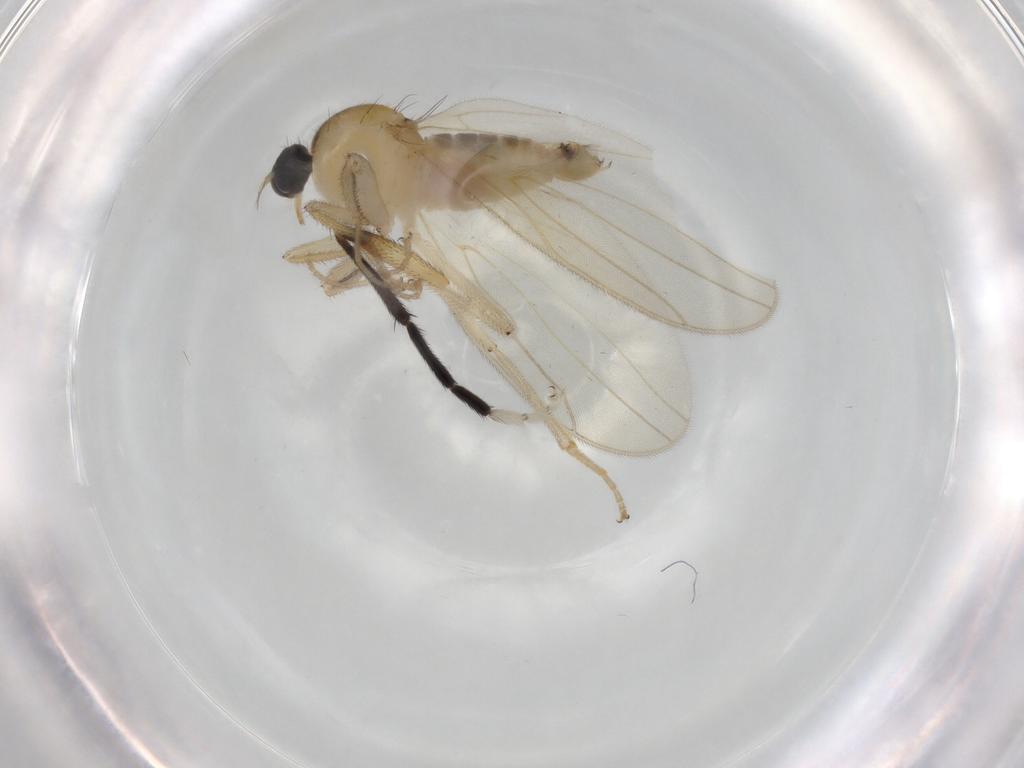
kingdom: Animalia
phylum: Arthropoda
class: Insecta
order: Diptera
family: Hybotidae
